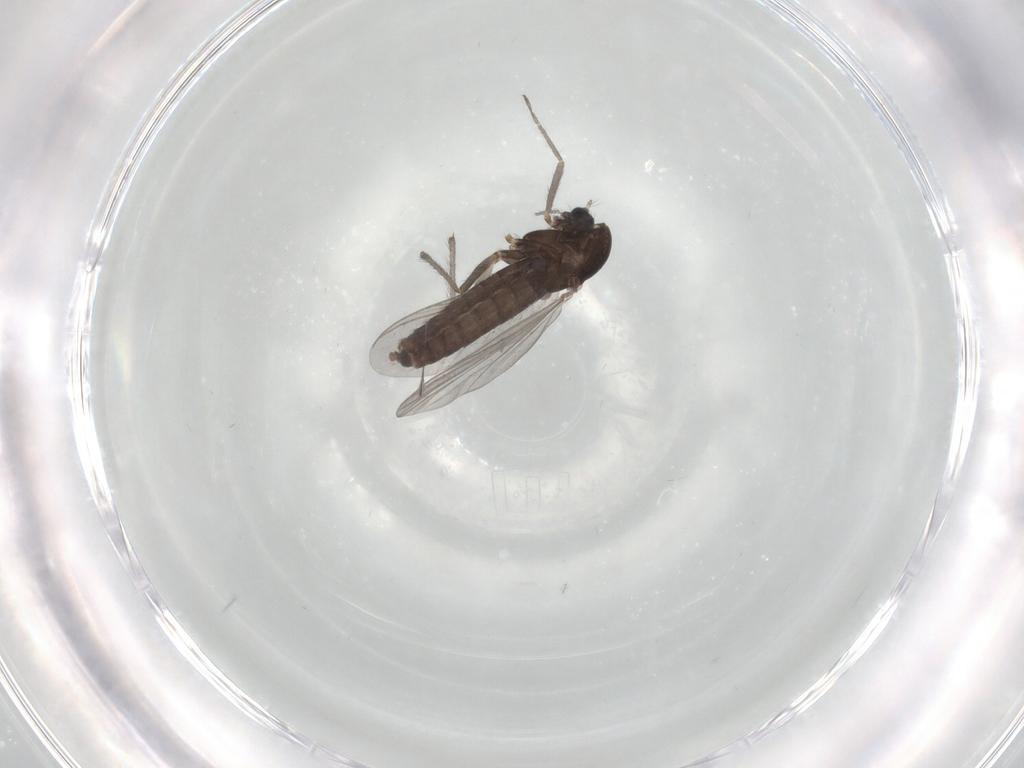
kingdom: Animalia
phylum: Arthropoda
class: Insecta
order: Diptera
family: Chironomidae
